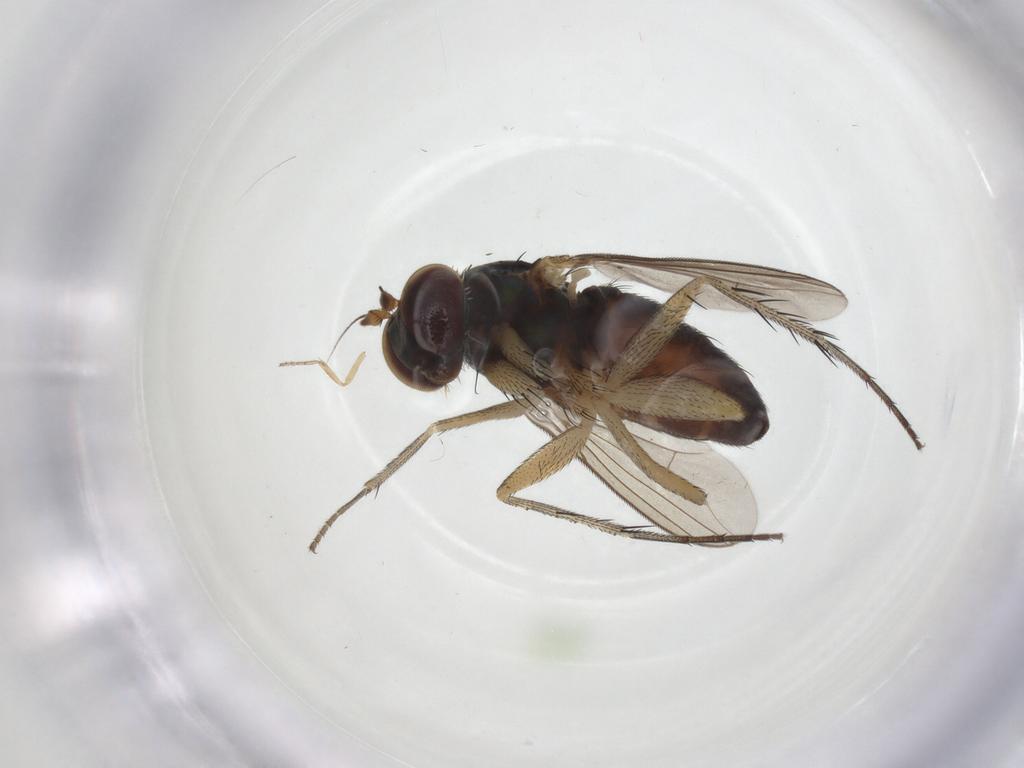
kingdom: Animalia
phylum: Arthropoda
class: Insecta
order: Diptera
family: Dolichopodidae
